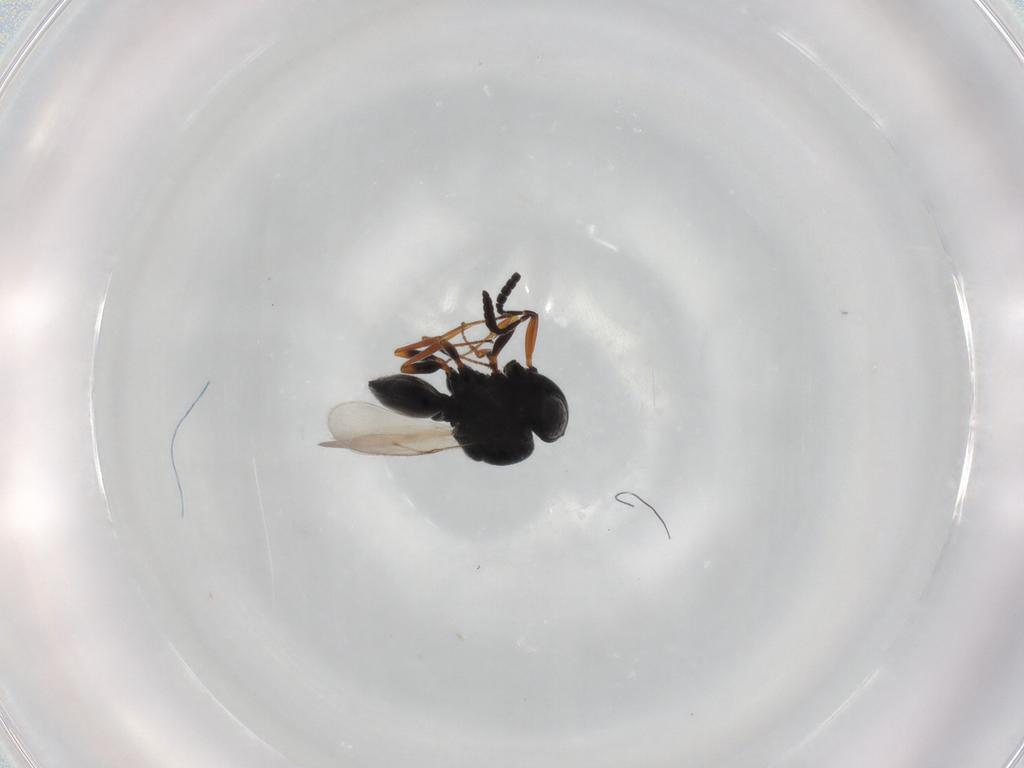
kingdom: Animalia
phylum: Arthropoda
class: Insecta
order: Hymenoptera
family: Scelionidae
